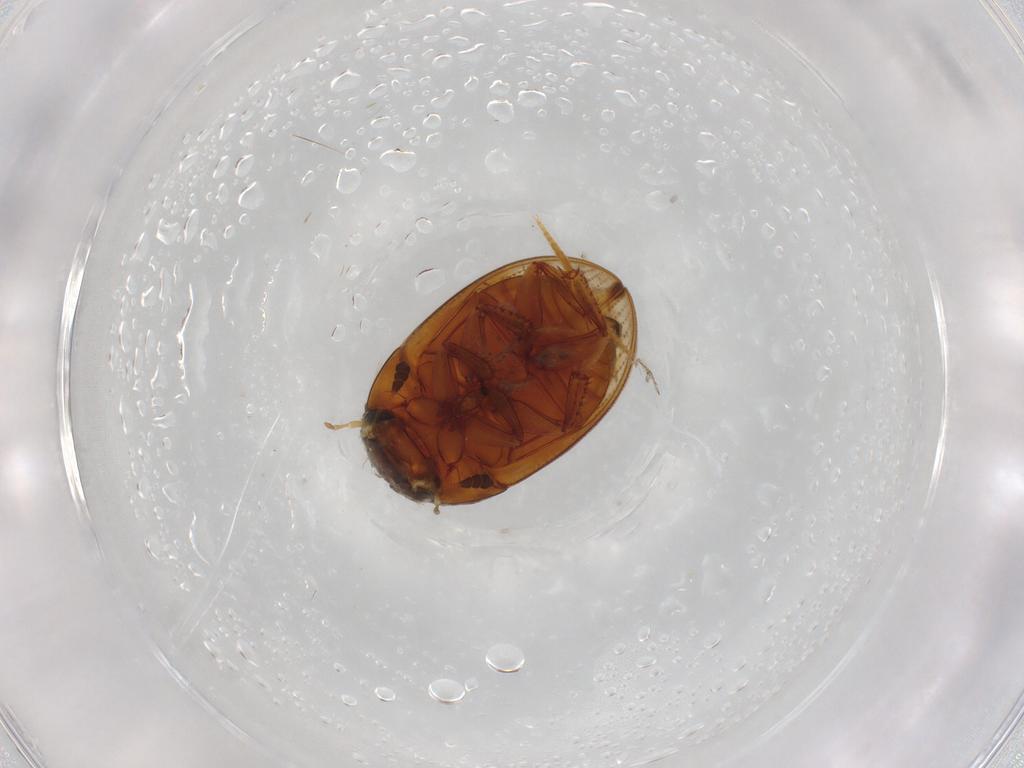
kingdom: Animalia
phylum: Arthropoda
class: Insecta
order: Coleoptera
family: Hydrophilidae
